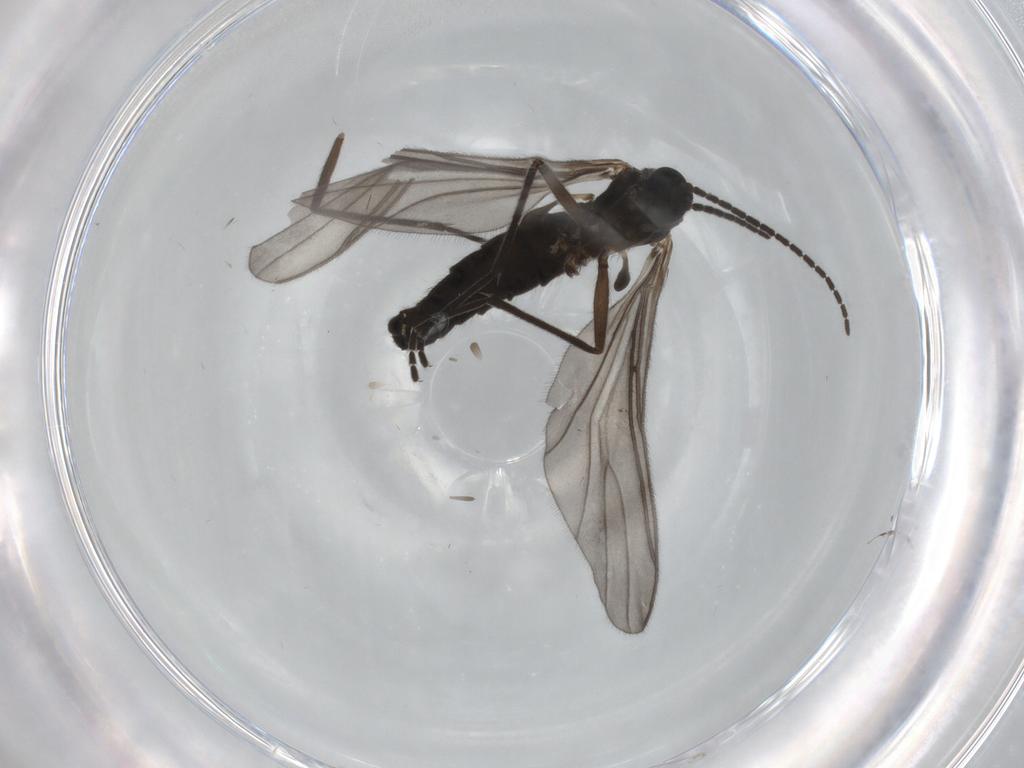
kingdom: Animalia
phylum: Arthropoda
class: Insecta
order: Diptera
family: Sciaridae
